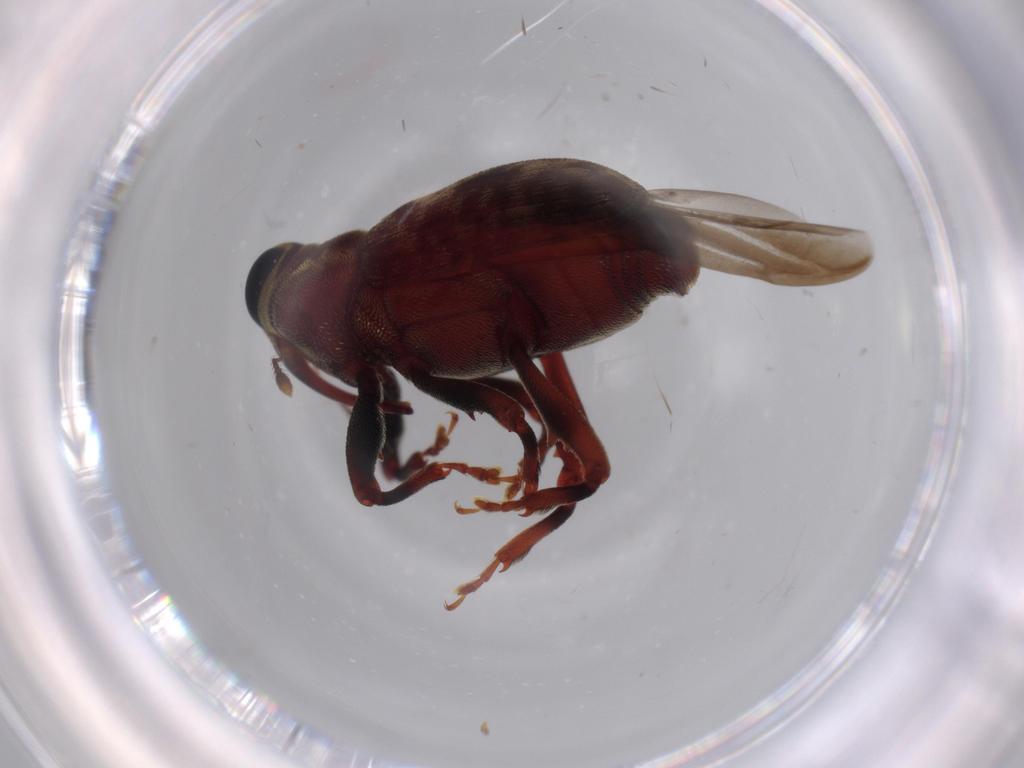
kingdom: Animalia
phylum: Arthropoda
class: Insecta
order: Coleoptera
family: Curculionidae
